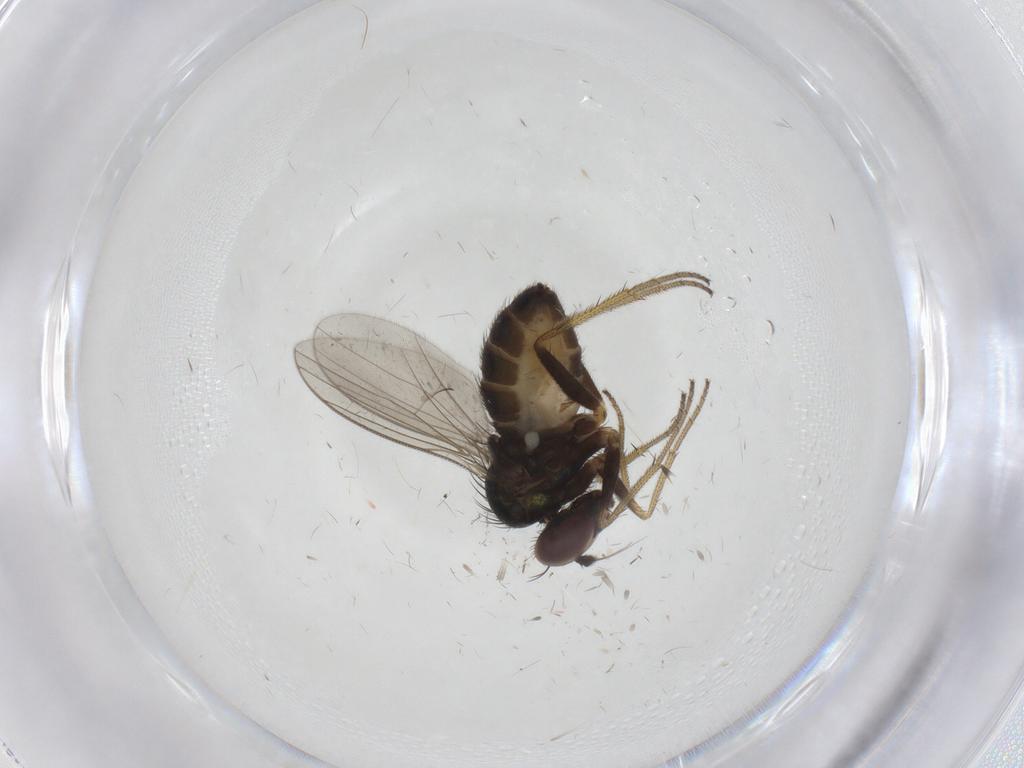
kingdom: Animalia
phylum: Arthropoda
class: Insecta
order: Diptera
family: Dolichopodidae
